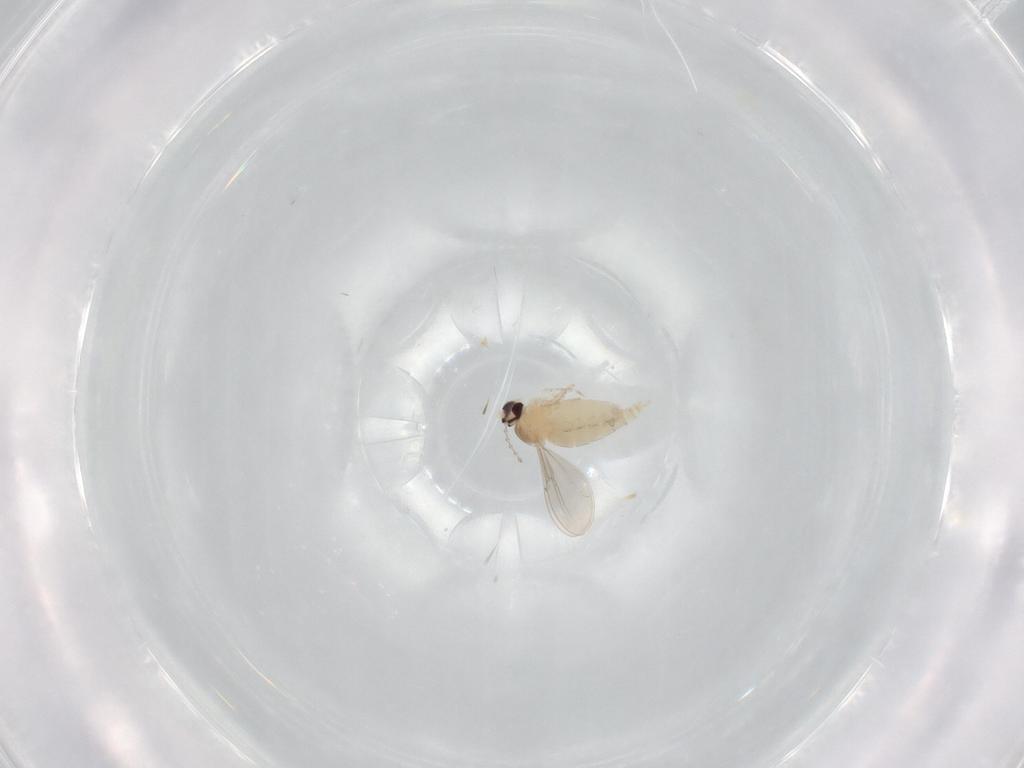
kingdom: Animalia
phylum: Arthropoda
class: Insecta
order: Diptera
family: Cecidomyiidae
